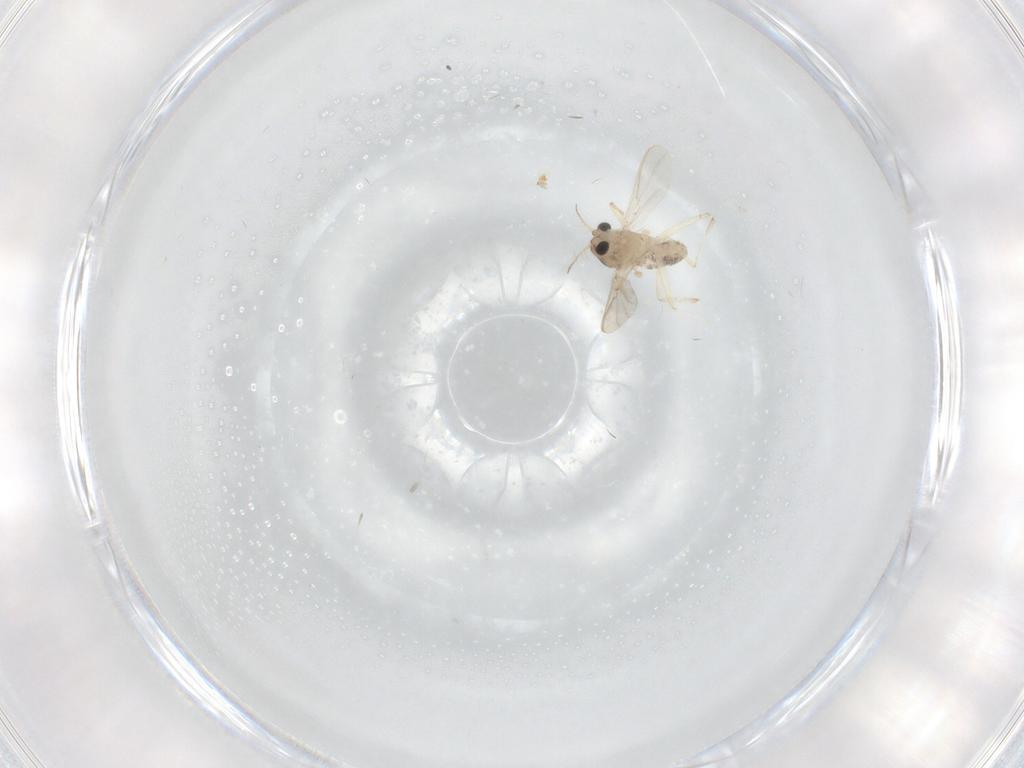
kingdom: Animalia
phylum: Arthropoda
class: Insecta
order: Diptera
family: Chironomidae
